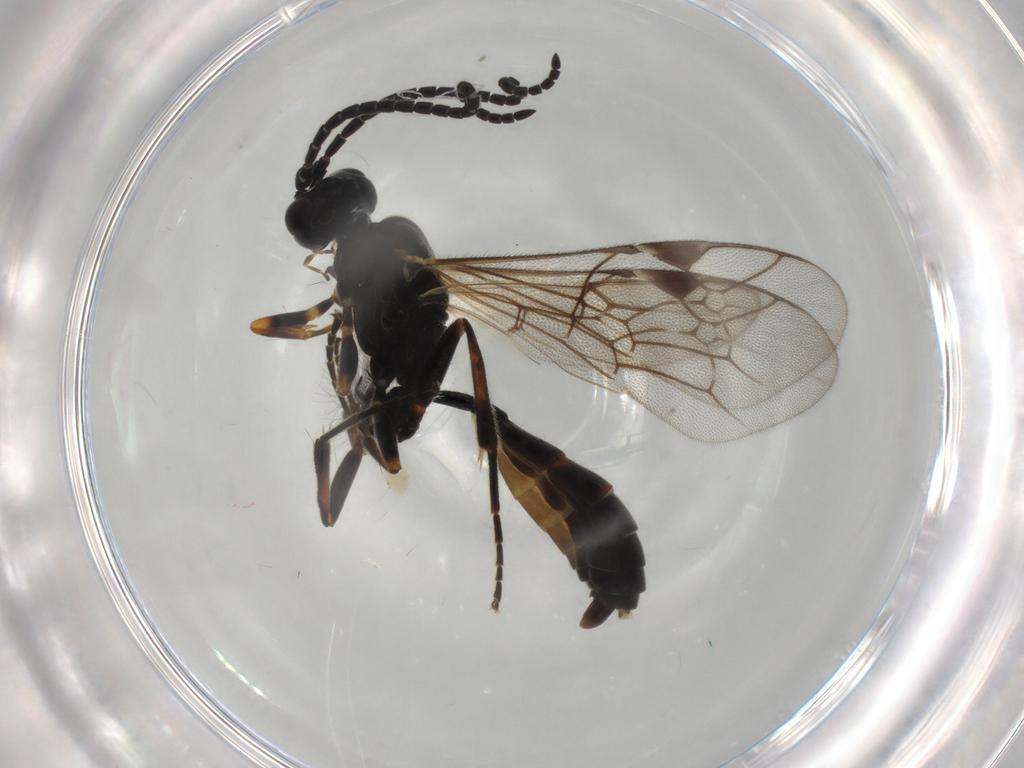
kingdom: Animalia
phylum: Arthropoda
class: Insecta
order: Hymenoptera
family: Ichneumonidae
